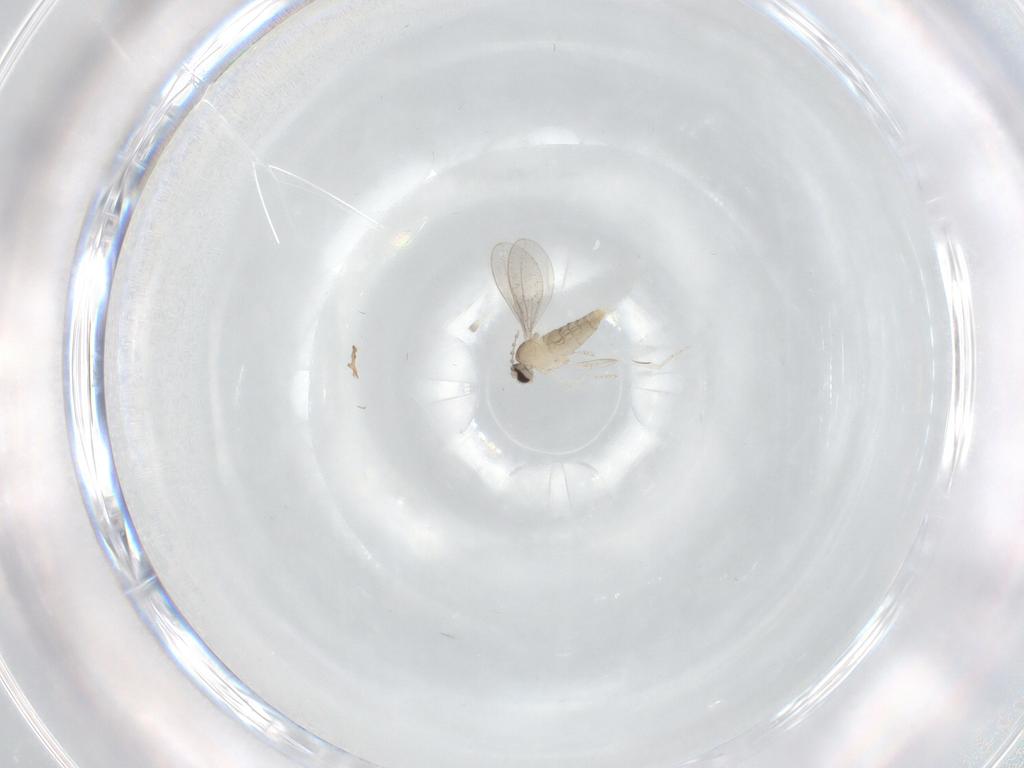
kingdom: Animalia
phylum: Arthropoda
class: Insecta
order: Diptera
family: Cecidomyiidae
